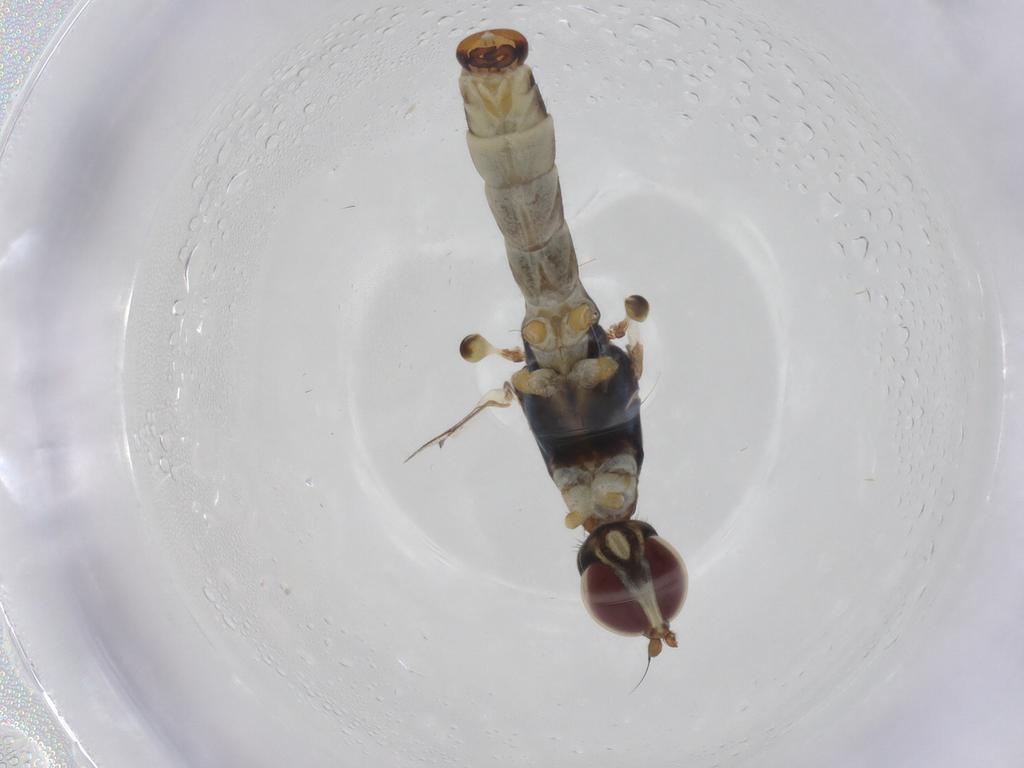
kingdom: Animalia
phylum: Arthropoda
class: Insecta
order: Diptera
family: Micropezidae
